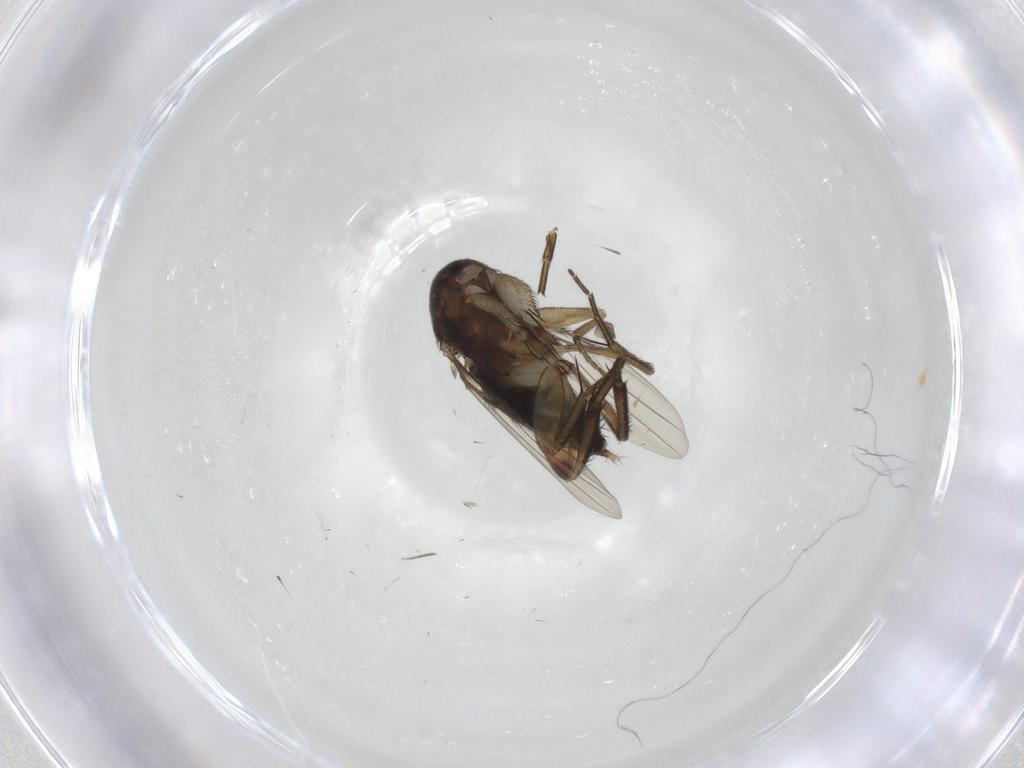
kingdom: Animalia
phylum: Arthropoda
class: Insecta
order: Diptera
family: Phoridae
